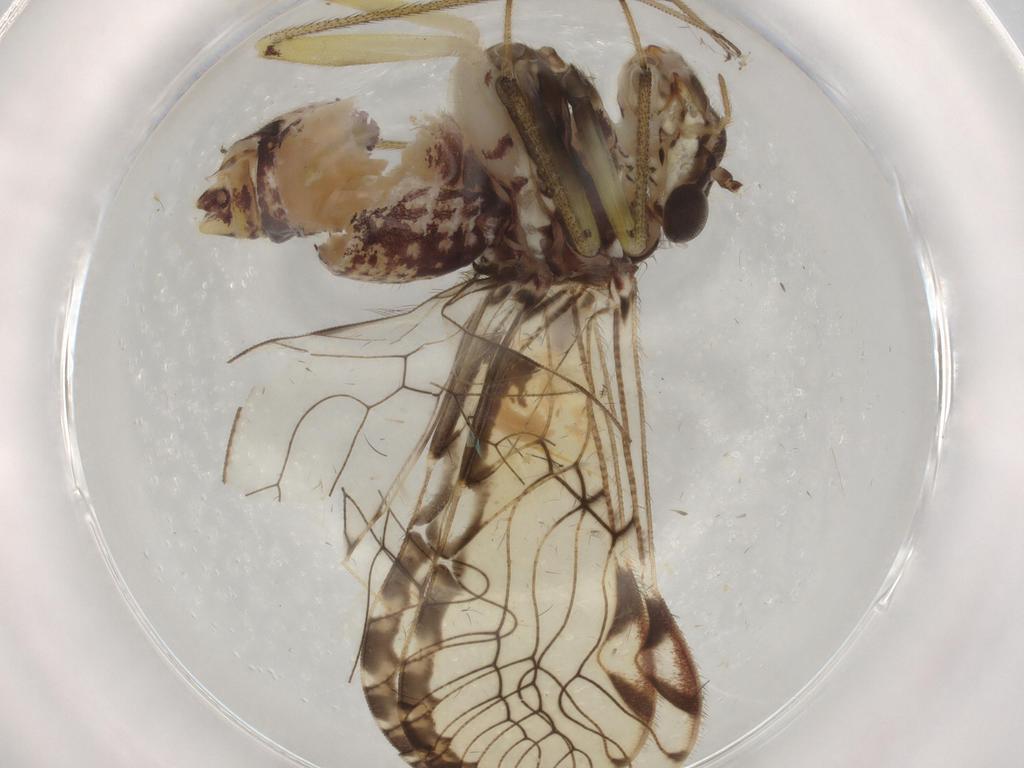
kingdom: Animalia
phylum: Arthropoda
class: Insecta
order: Psocodea
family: Ptiloneuridae
